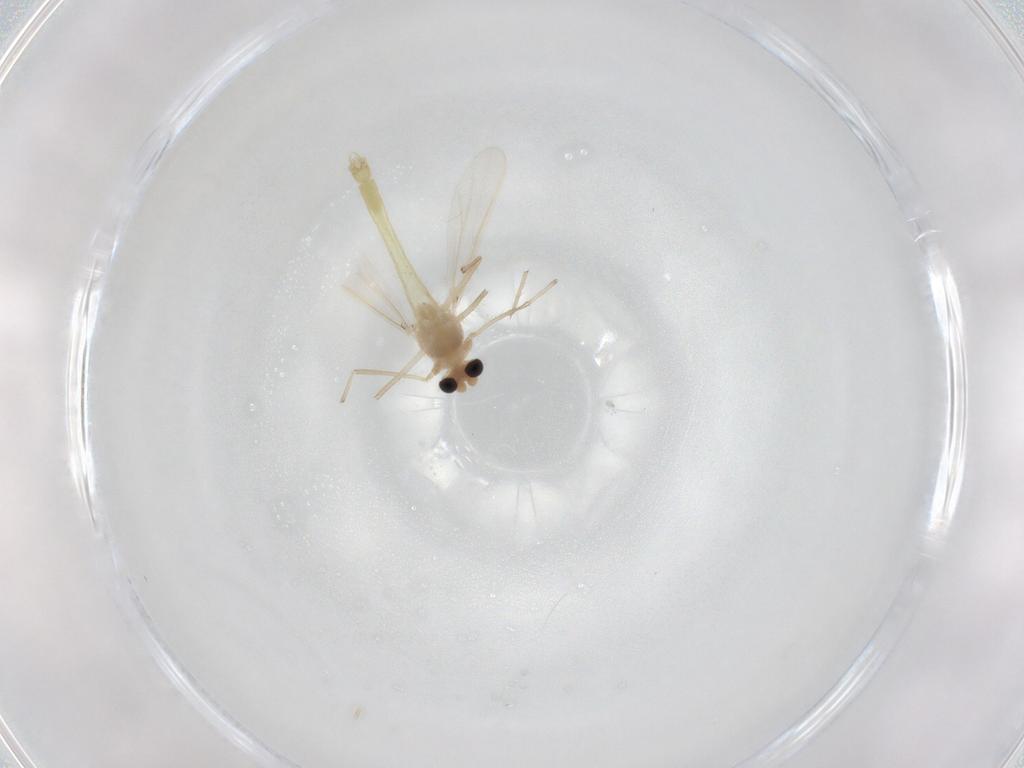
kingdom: Animalia
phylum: Arthropoda
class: Insecta
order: Diptera
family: Chironomidae
